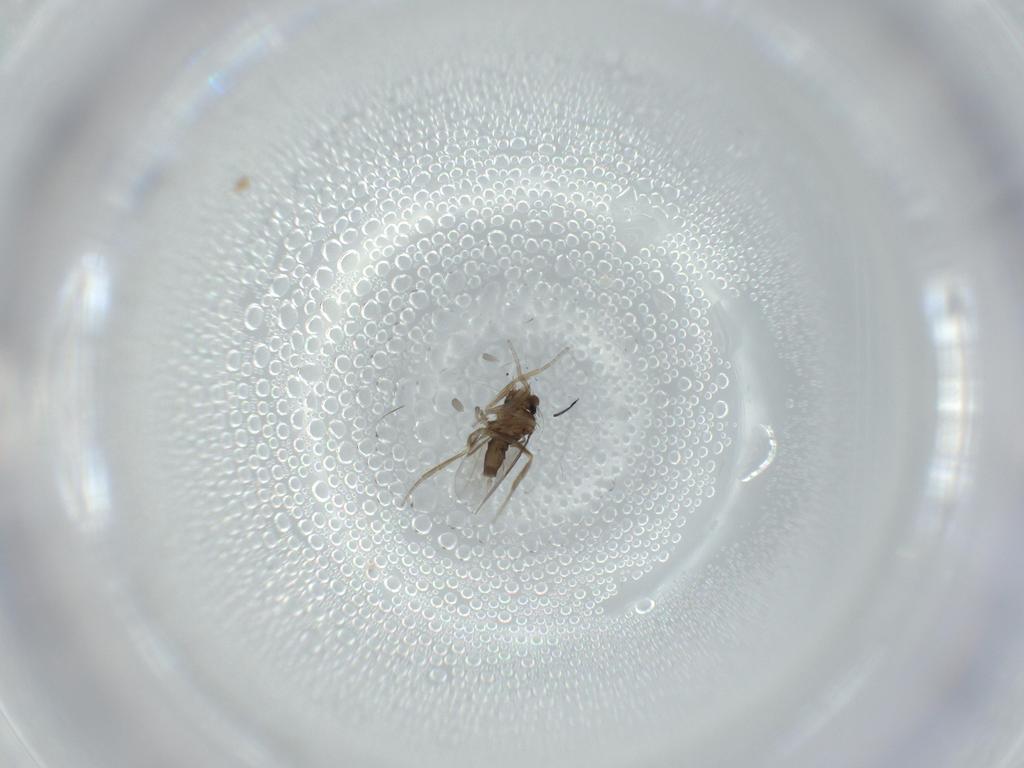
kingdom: Animalia
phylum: Arthropoda
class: Insecta
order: Diptera
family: Phoridae
